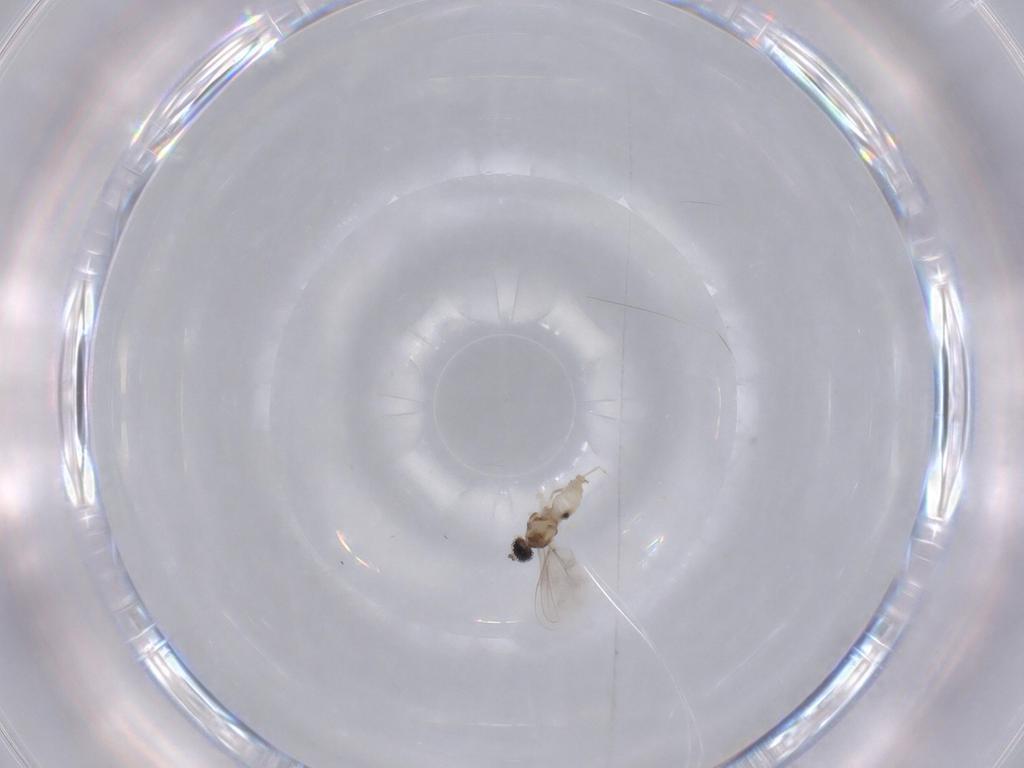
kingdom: Animalia
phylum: Arthropoda
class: Insecta
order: Diptera
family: Cecidomyiidae
